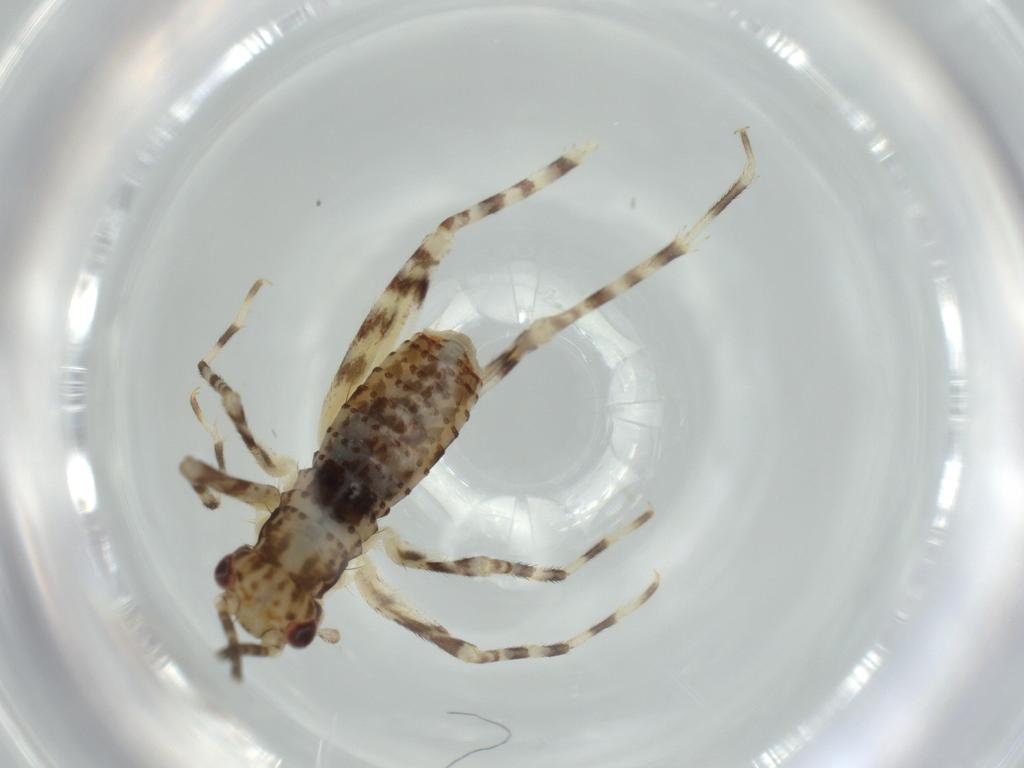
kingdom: Animalia
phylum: Arthropoda
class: Insecta
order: Orthoptera
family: Gryllidae
